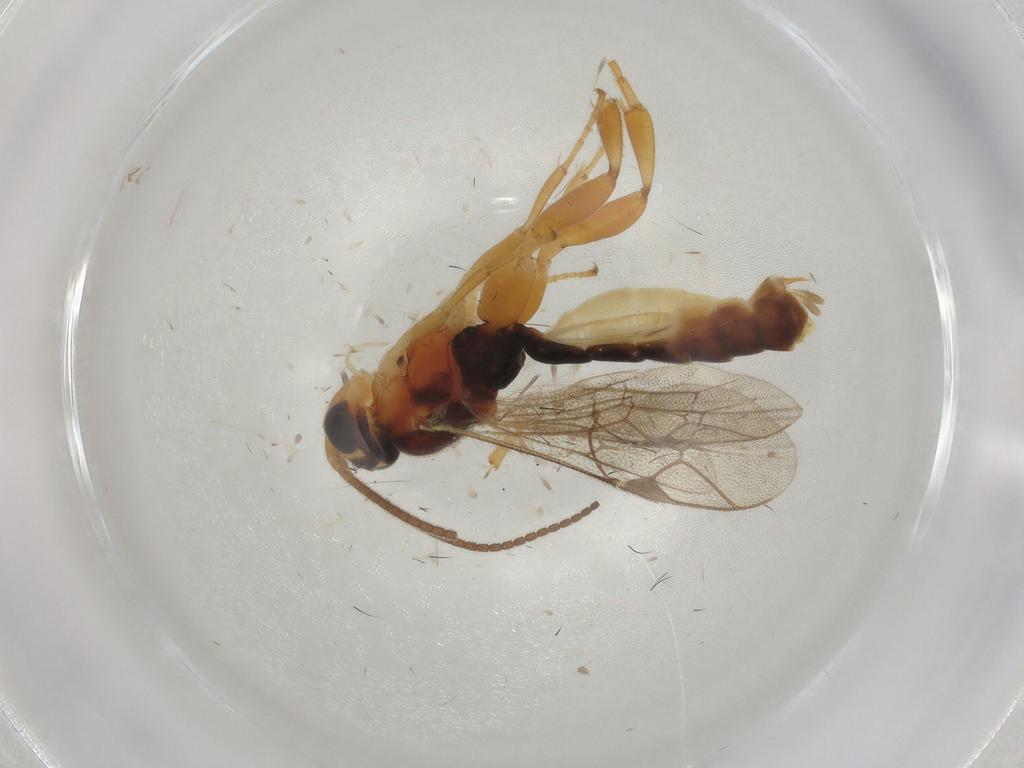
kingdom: Animalia
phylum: Arthropoda
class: Insecta
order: Hymenoptera
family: Ichneumonidae
